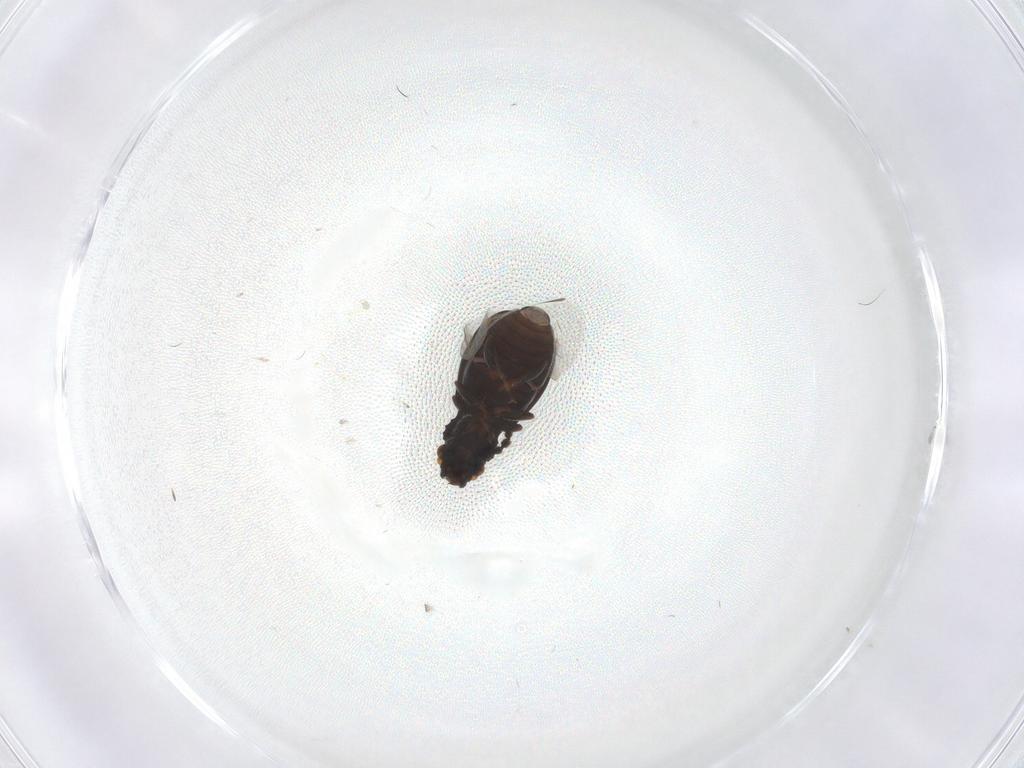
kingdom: Animalia
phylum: Arthropoda
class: Insecta
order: Coleoptera
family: Salpingidae
